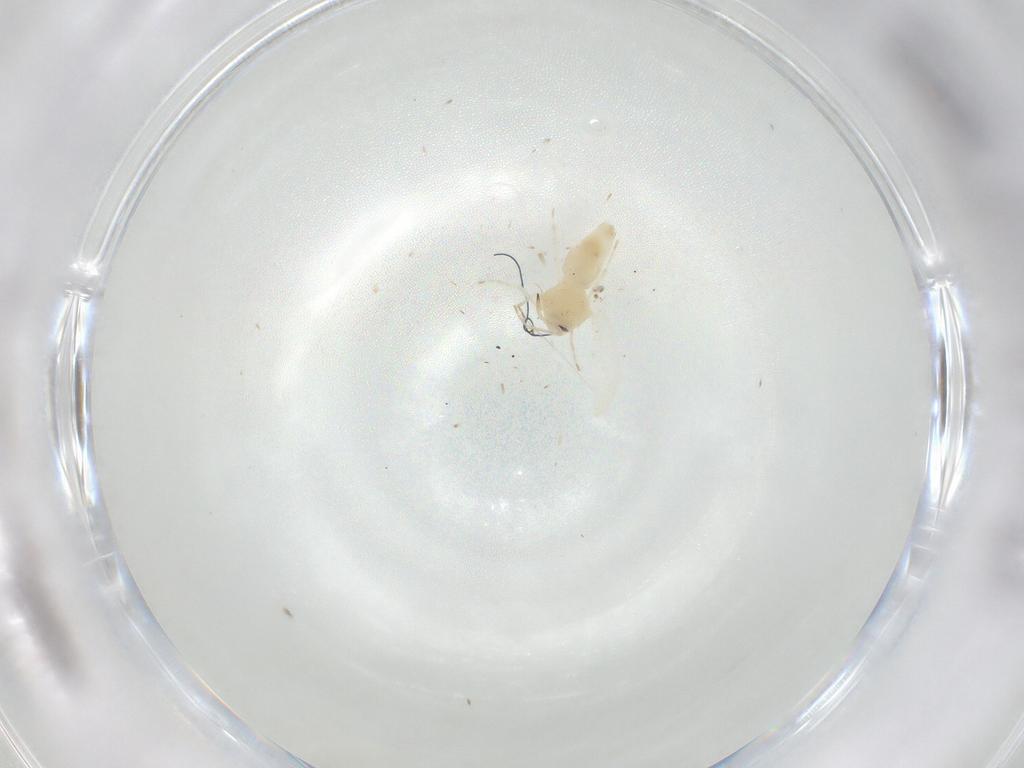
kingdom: Animalia
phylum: Arthropoda
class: Insecta
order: Hemiptera
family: Aleyrodidae
